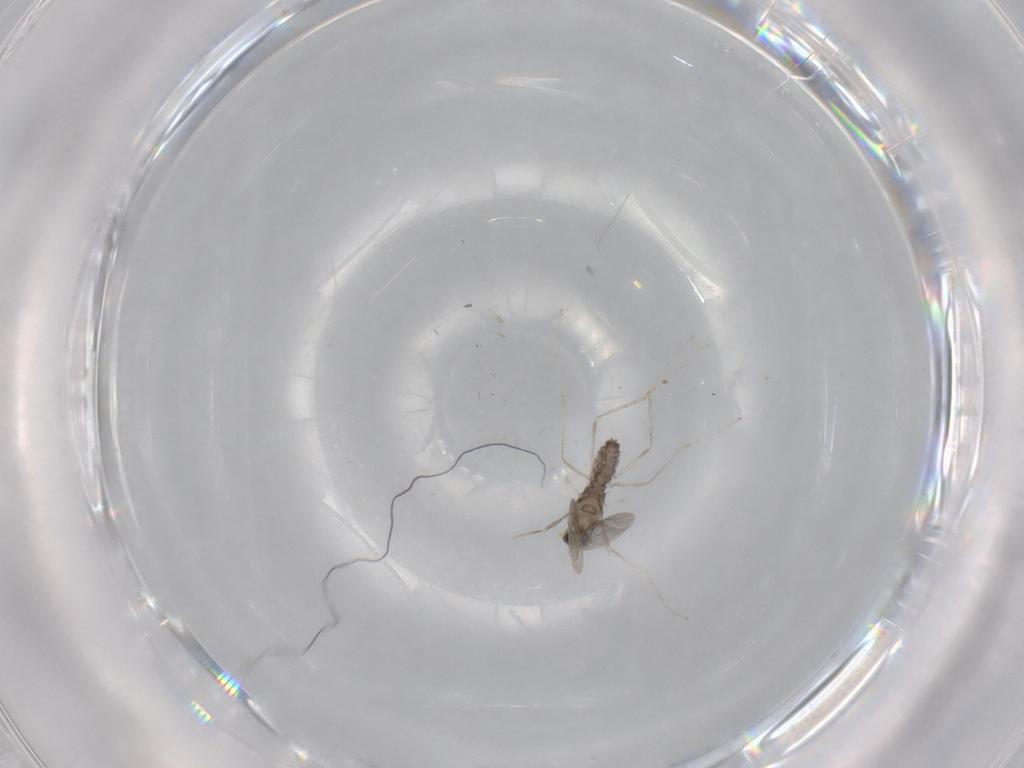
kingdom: Animalia
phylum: Arthropoda
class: Insecta
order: Diptera
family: Cecidomyiidae
